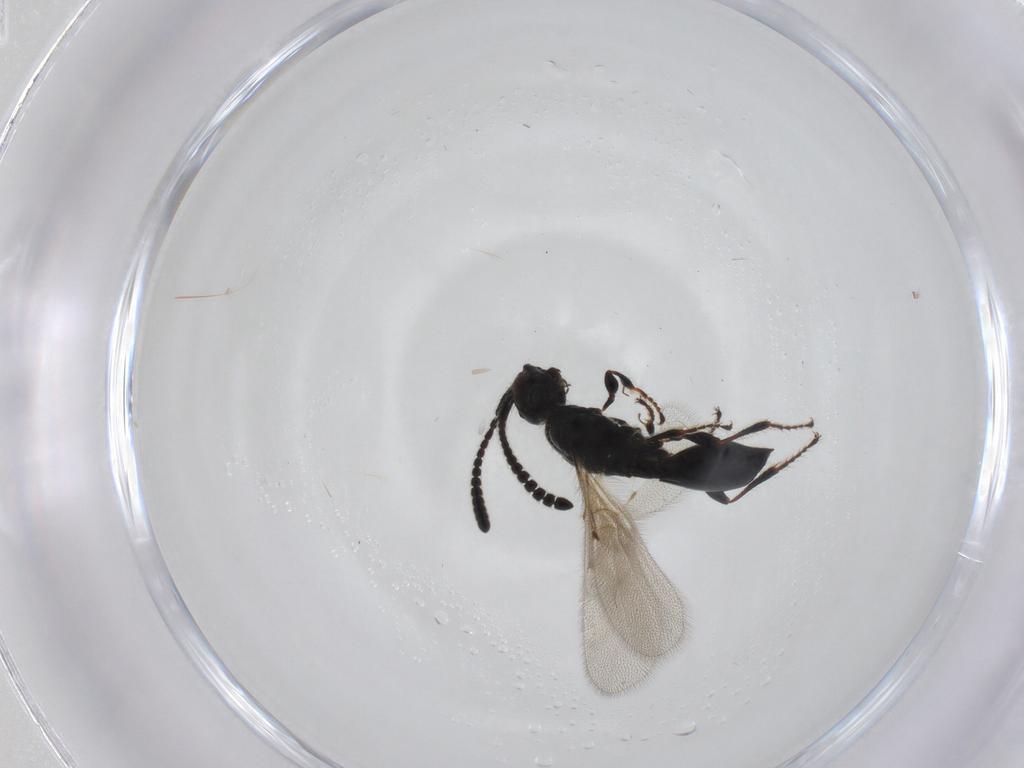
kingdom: Animalia
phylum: Arthropoda
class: Insecta
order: Hymenoptera
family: Diapriidae
